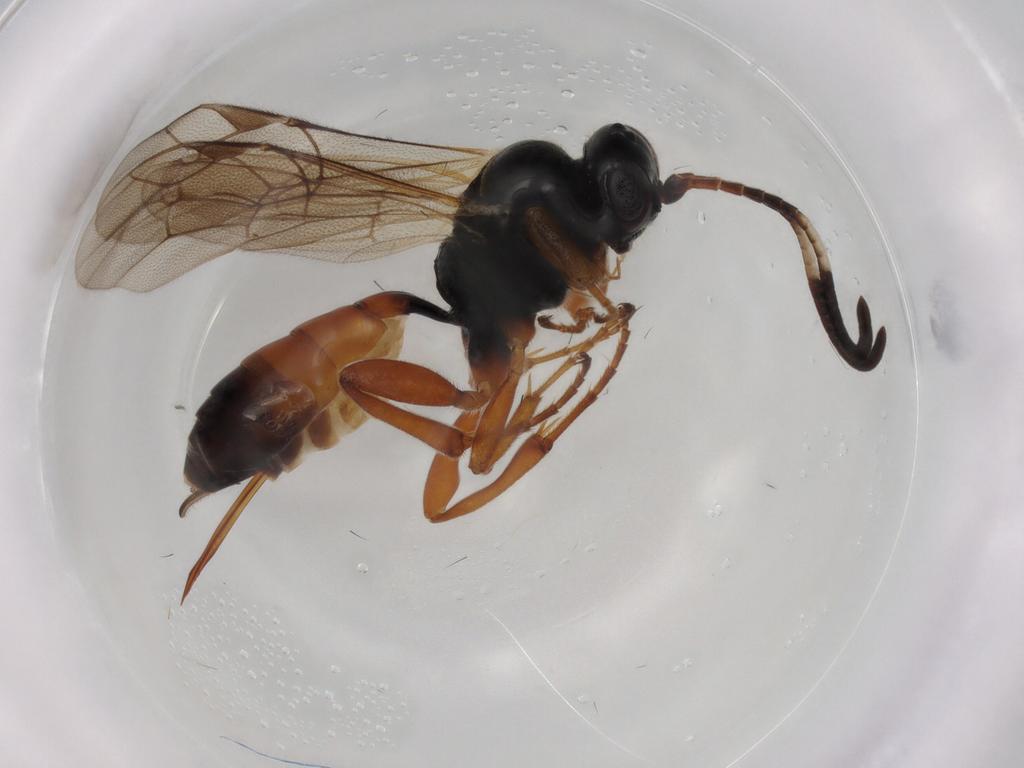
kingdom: Animalia
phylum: Arthropoda
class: Insecta
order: Hymenoptera
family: Ichneumonidae
